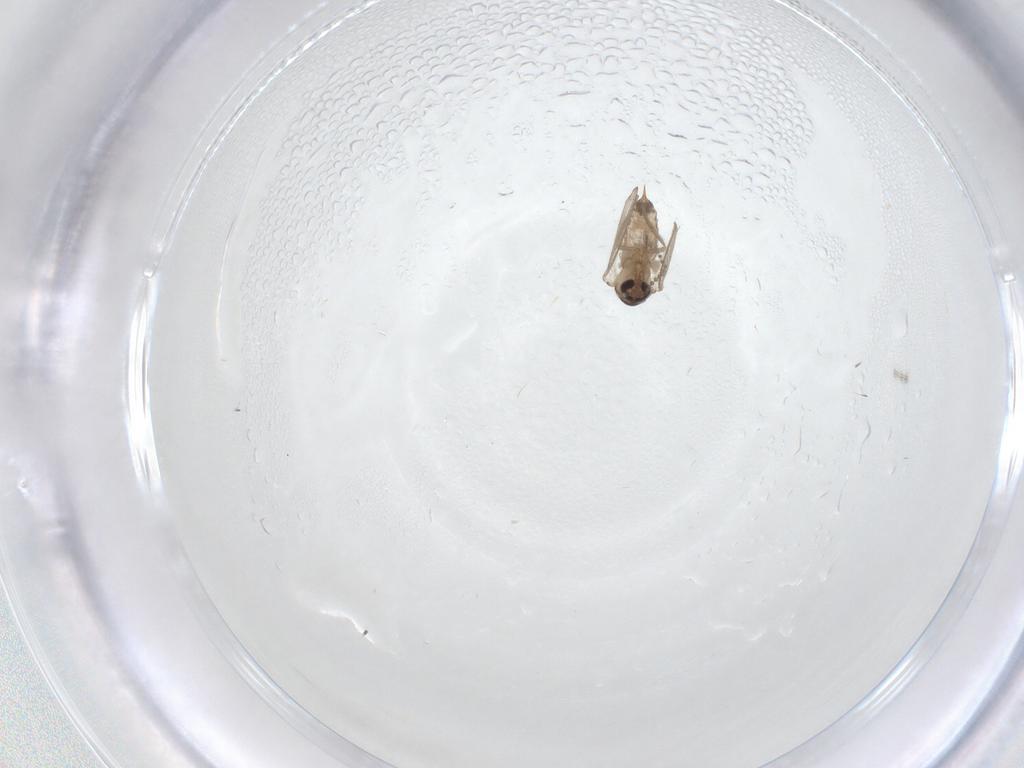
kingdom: Animalia
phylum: Arthropoda
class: Insecta
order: Diptera
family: Psychodidae
